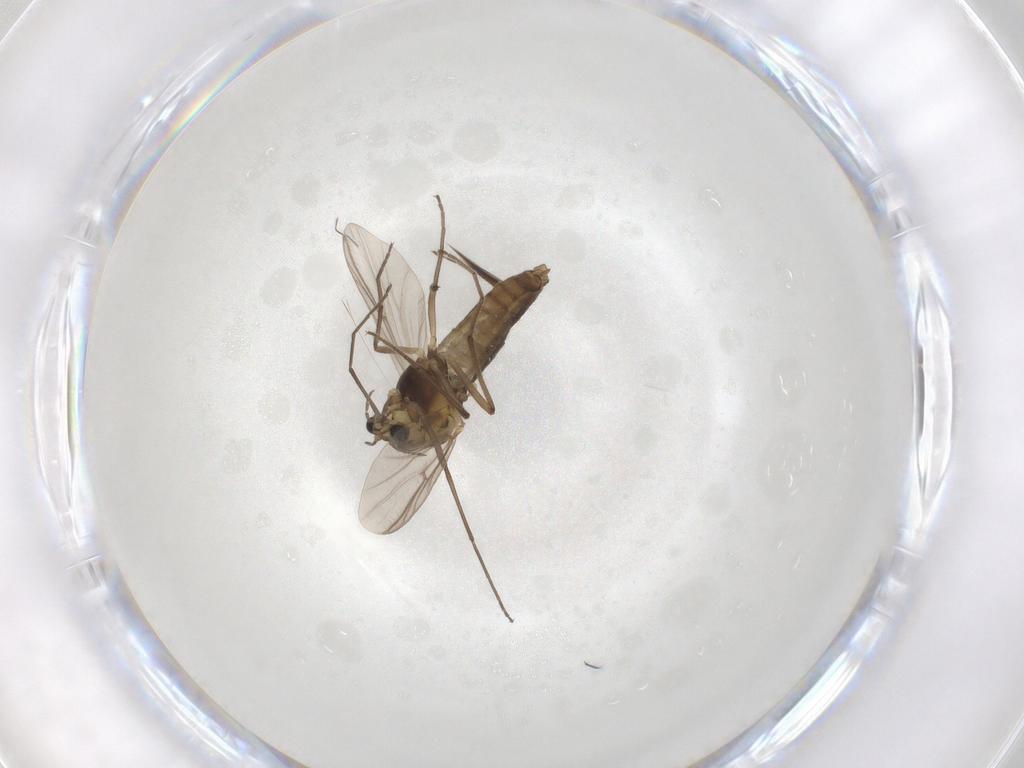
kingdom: Animalia
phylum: Arthropoda
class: Insecta
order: Diptera
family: Chironomidae
